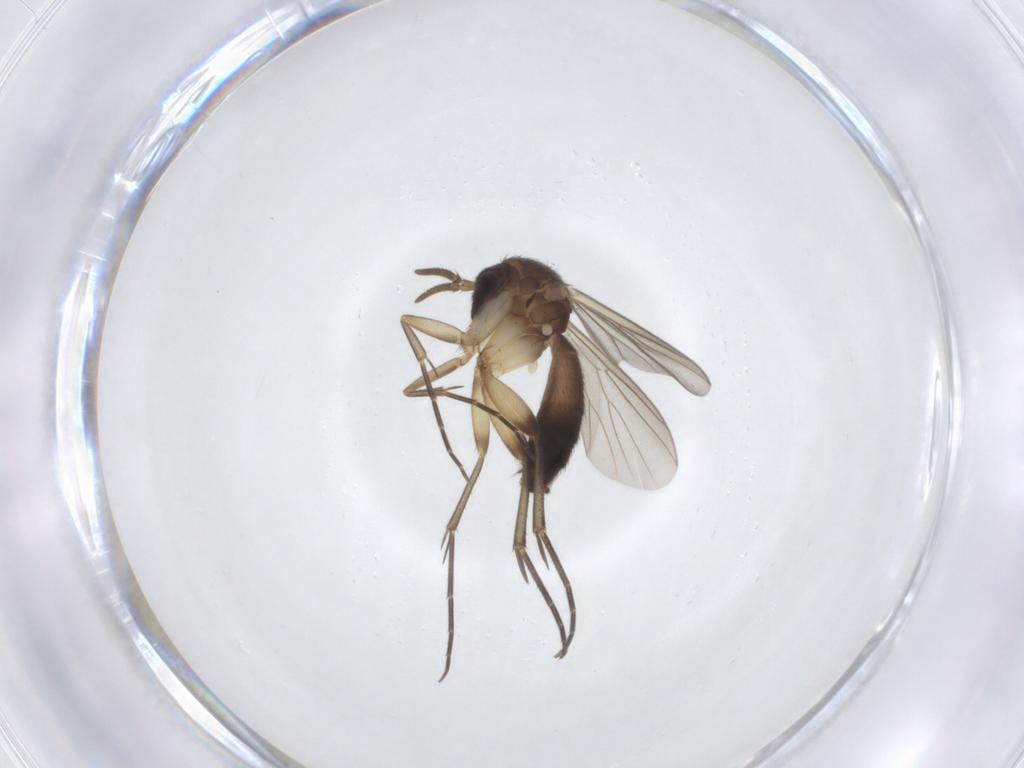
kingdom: Animalia
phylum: Arthropoda
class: Insecta
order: Diptera
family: Mycetophilidae
